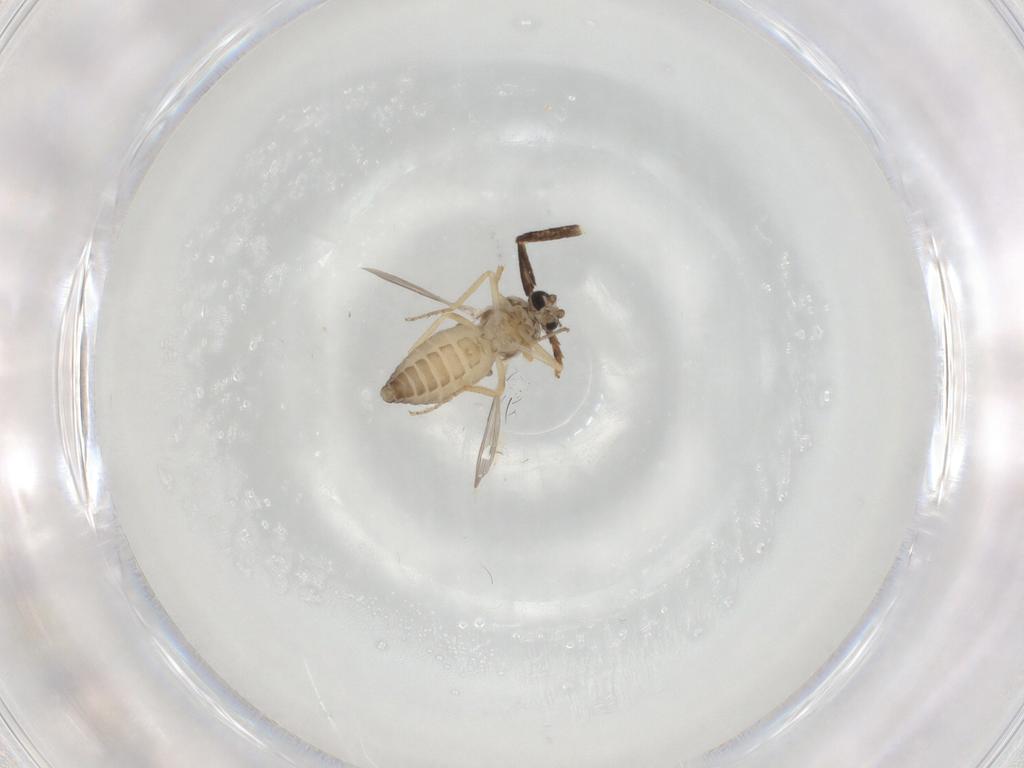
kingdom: Animalia
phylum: Arthropoda
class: Insecta
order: Diptera
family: Ceratopogonidae
